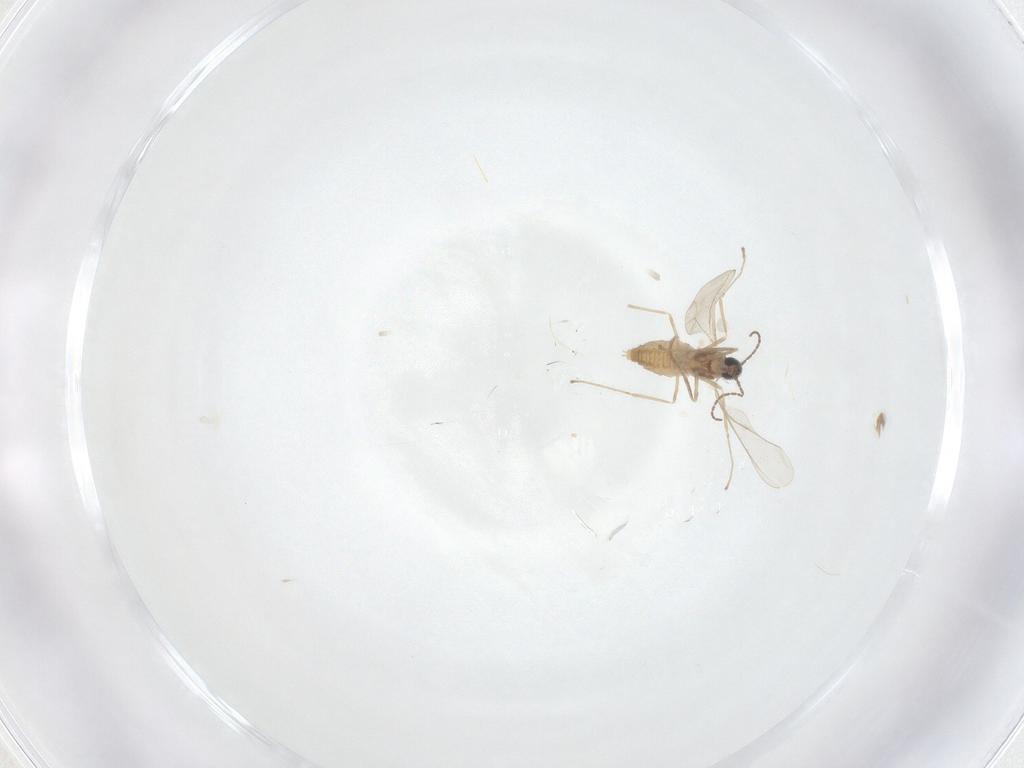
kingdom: Animalia
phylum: Arthropoda
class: Insecta
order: Diptera
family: Cecidomyiidae
